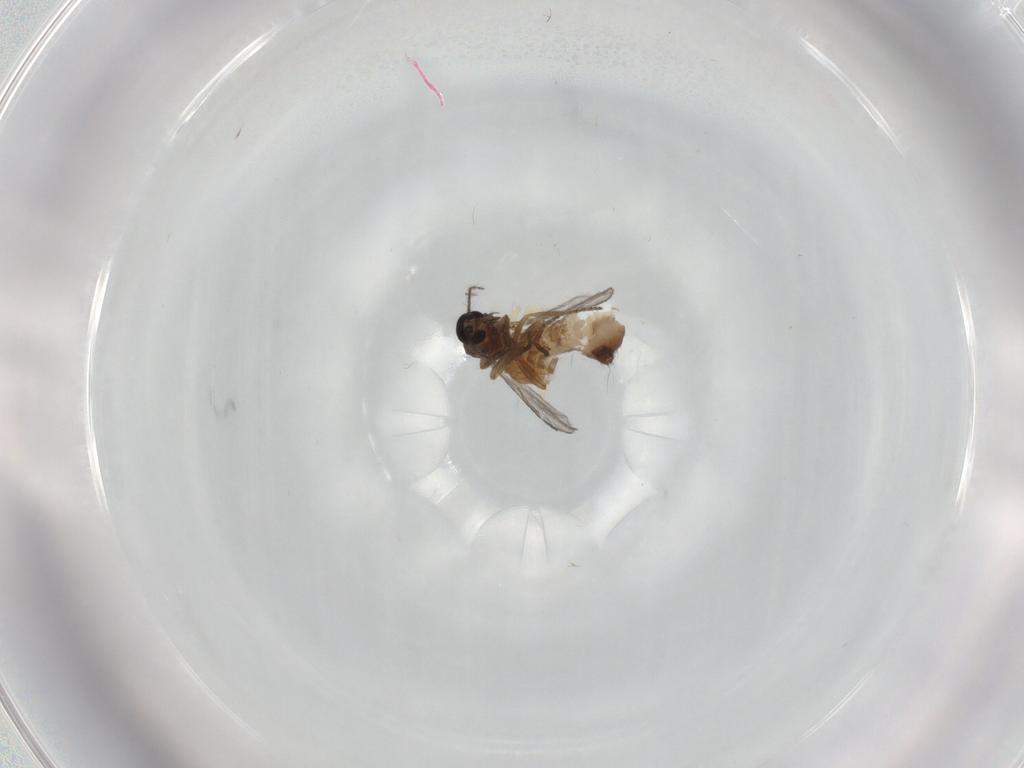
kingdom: Animalia
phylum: Arthropoda
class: Insecta
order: Diptera
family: Ceratopogonidae
